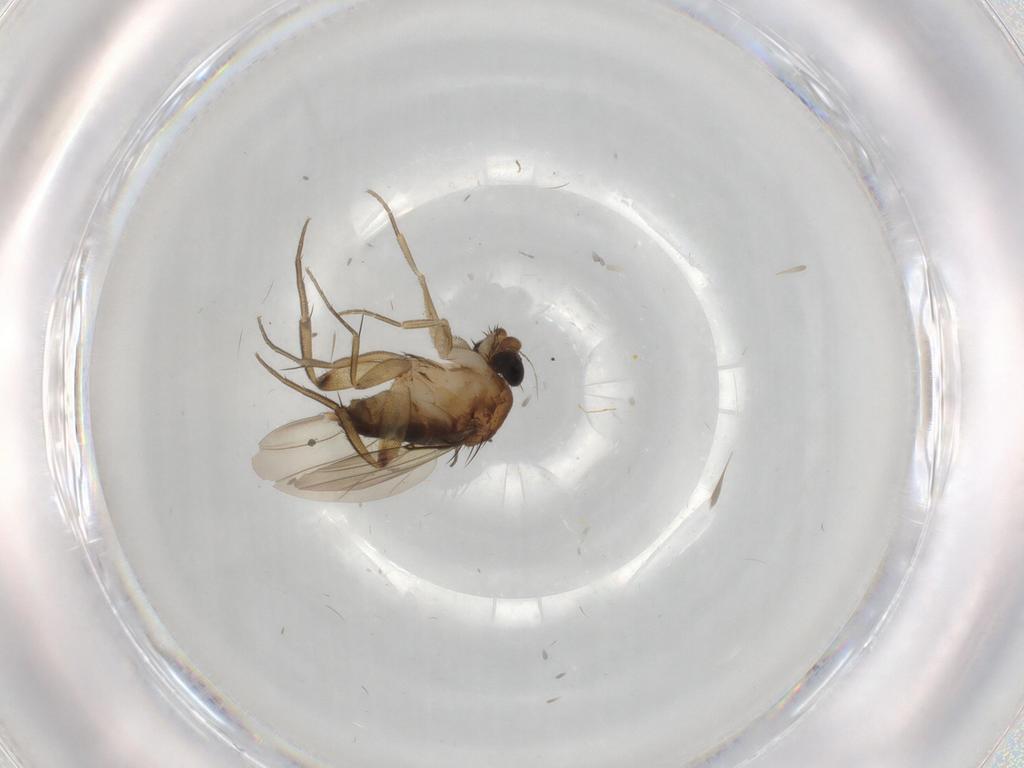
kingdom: Animalia
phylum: Arthropoda
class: Insecta
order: Diptera
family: Phoridae
